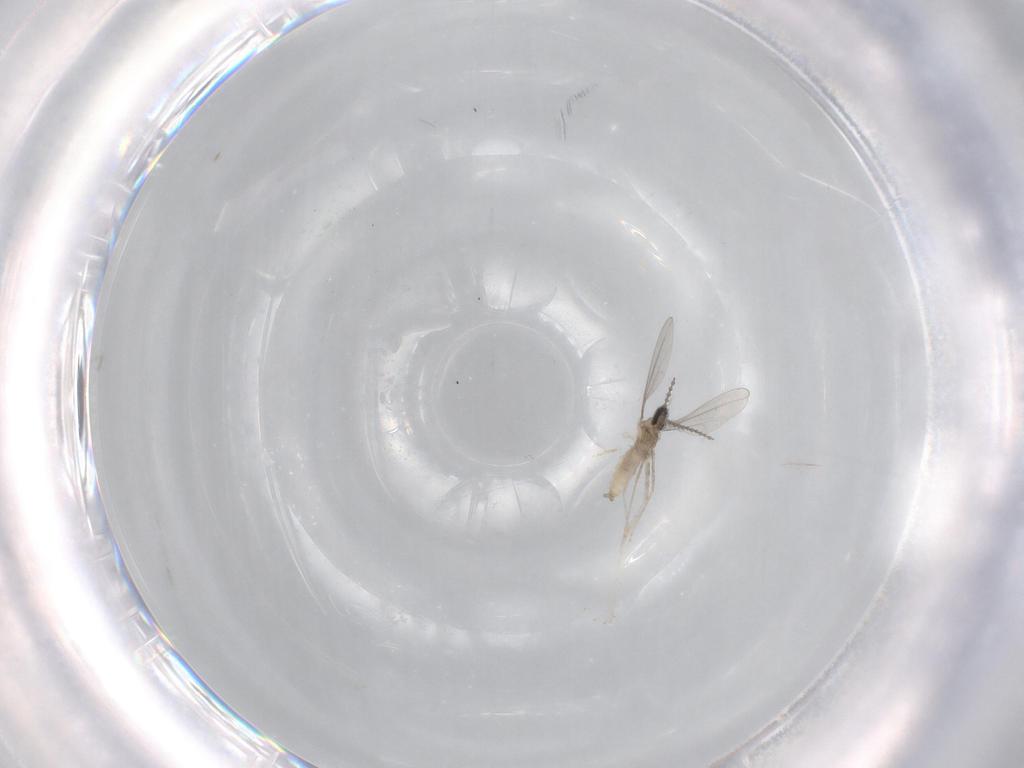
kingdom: Animalia
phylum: Arthropoda
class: Insecta
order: Diptera
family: Cecidomyiidae
